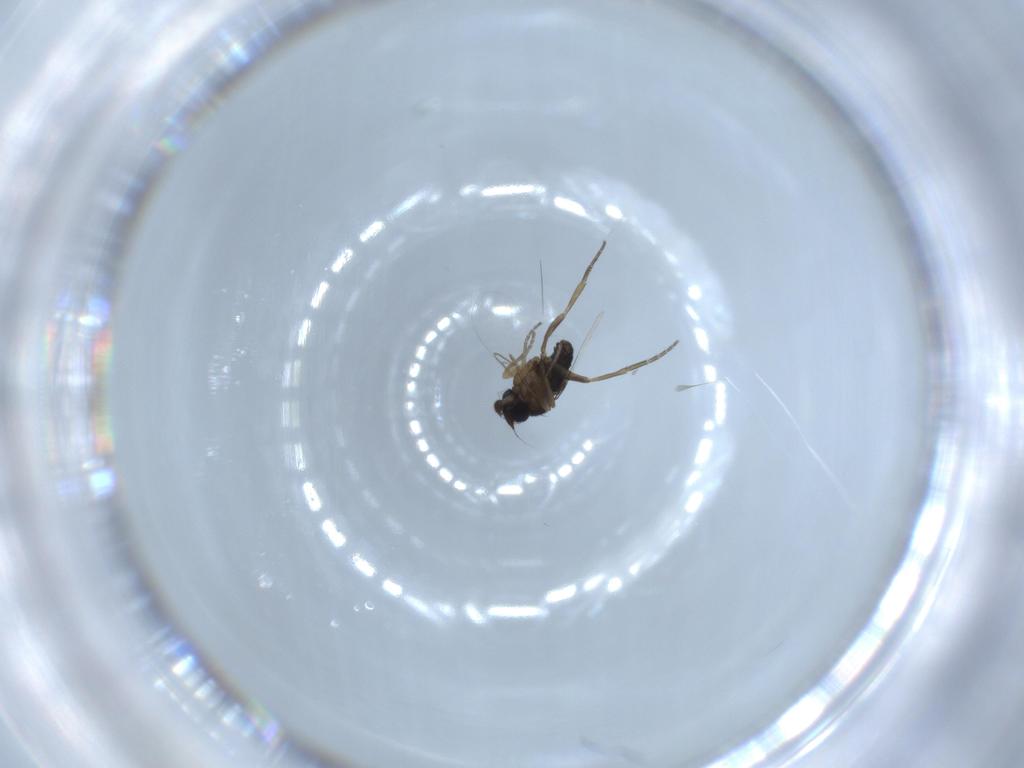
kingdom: Animalia
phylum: Arthropoda
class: Insecta
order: Diptera
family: Phoridae
